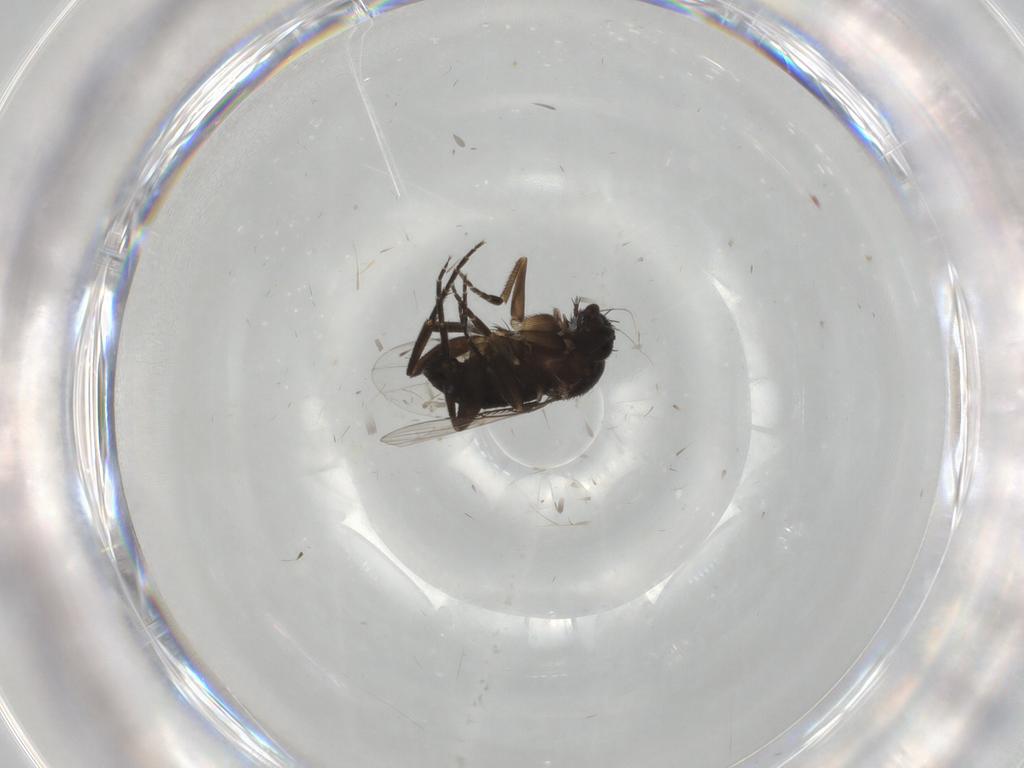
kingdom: Animalia
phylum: Arthropoda
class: Insecta
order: Diptera
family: Phoridae
